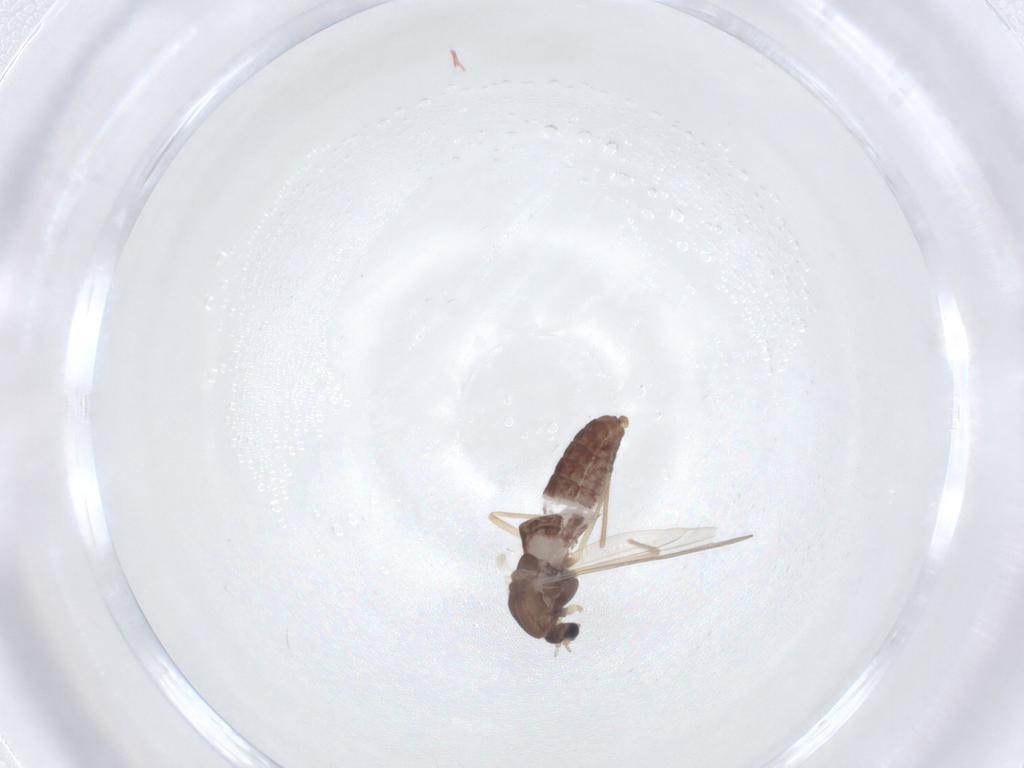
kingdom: Animalia
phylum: Arthropoda
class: Insecta
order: Diptera
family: Chironomidae
